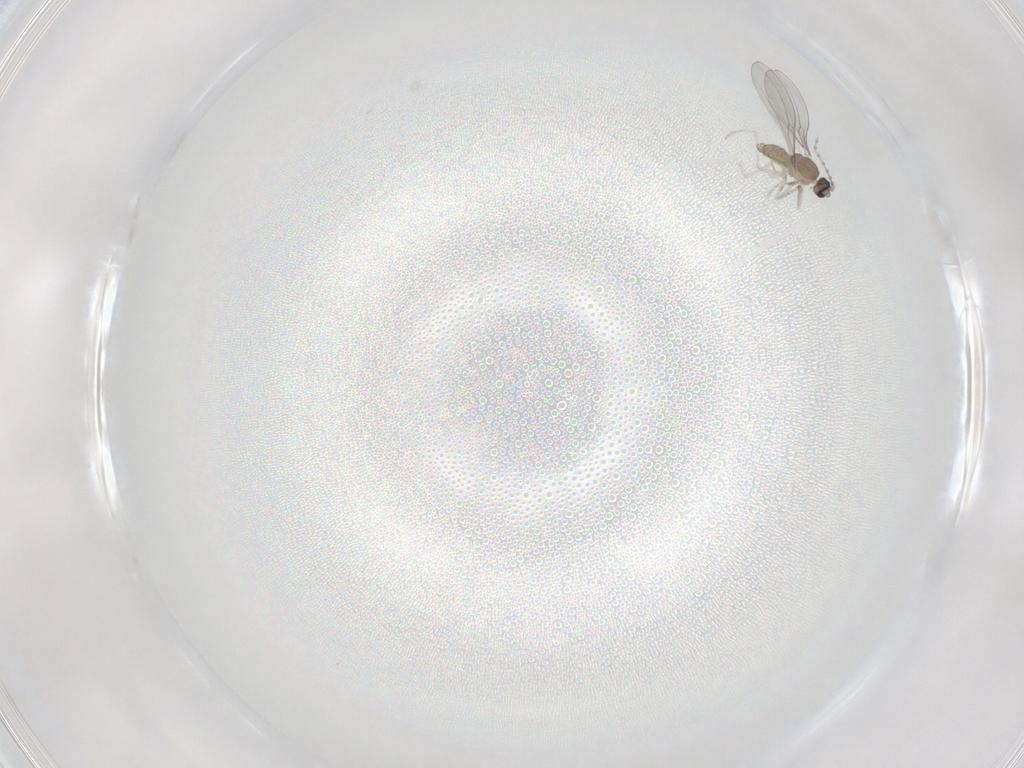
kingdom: Animalia
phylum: Arthropoda
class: Insecta
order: Diptera
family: Cecidomyiidae
